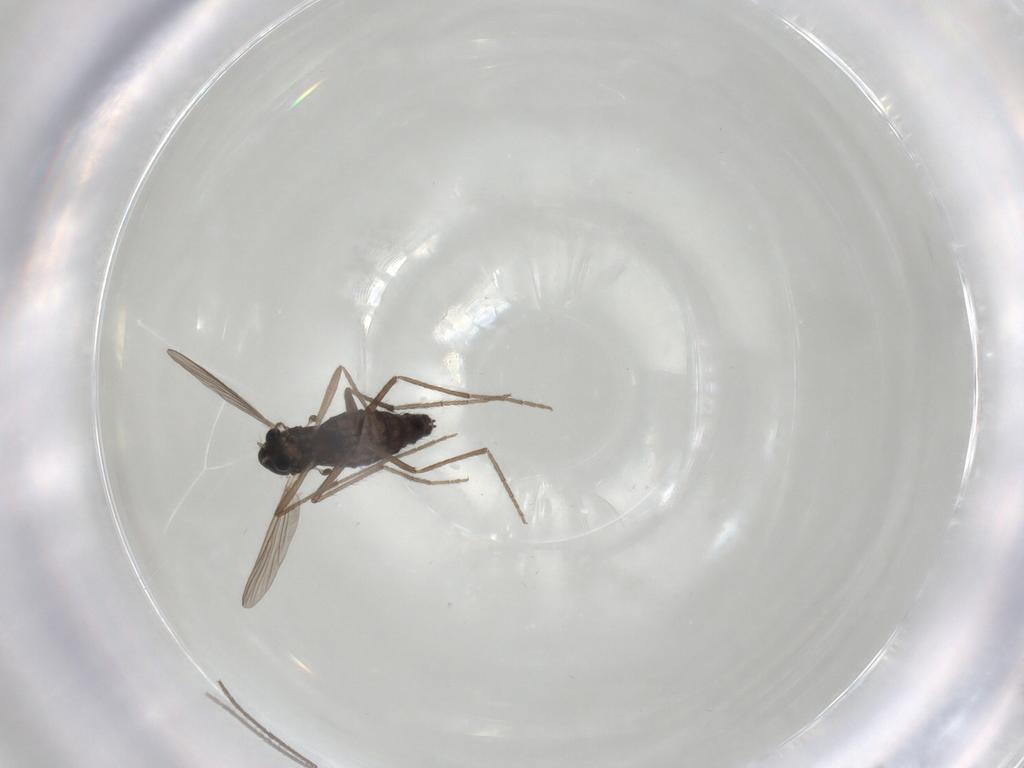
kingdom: Animalia
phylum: Arthropoda
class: Insecta
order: Diptera
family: Chironomidae
